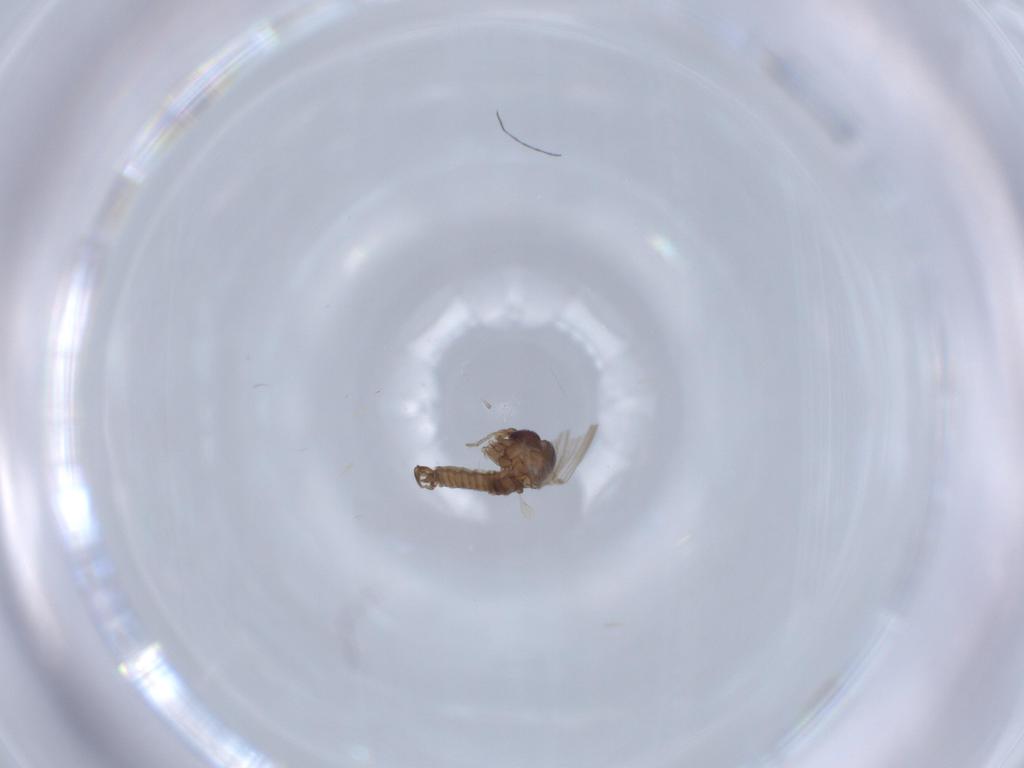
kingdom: Animalia
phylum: Arthropoda
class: Insecta
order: Diptera
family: Psychodidae
